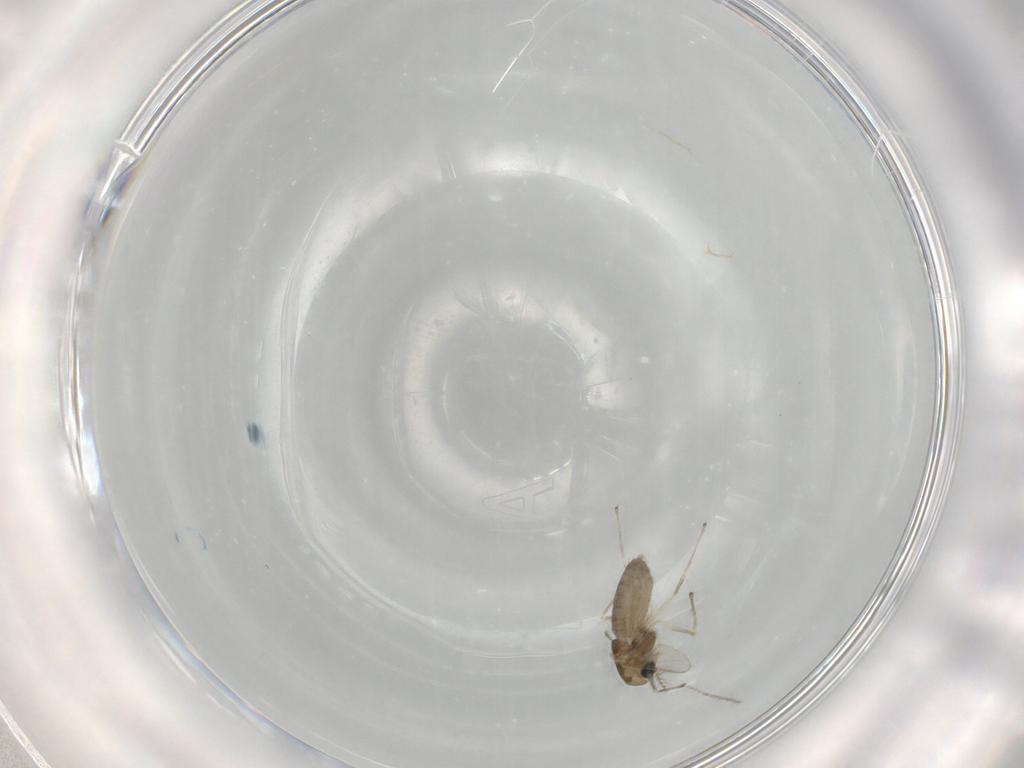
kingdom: Animalia
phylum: Arthropoda
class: Insecta
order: Diptera
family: Chironomidae
